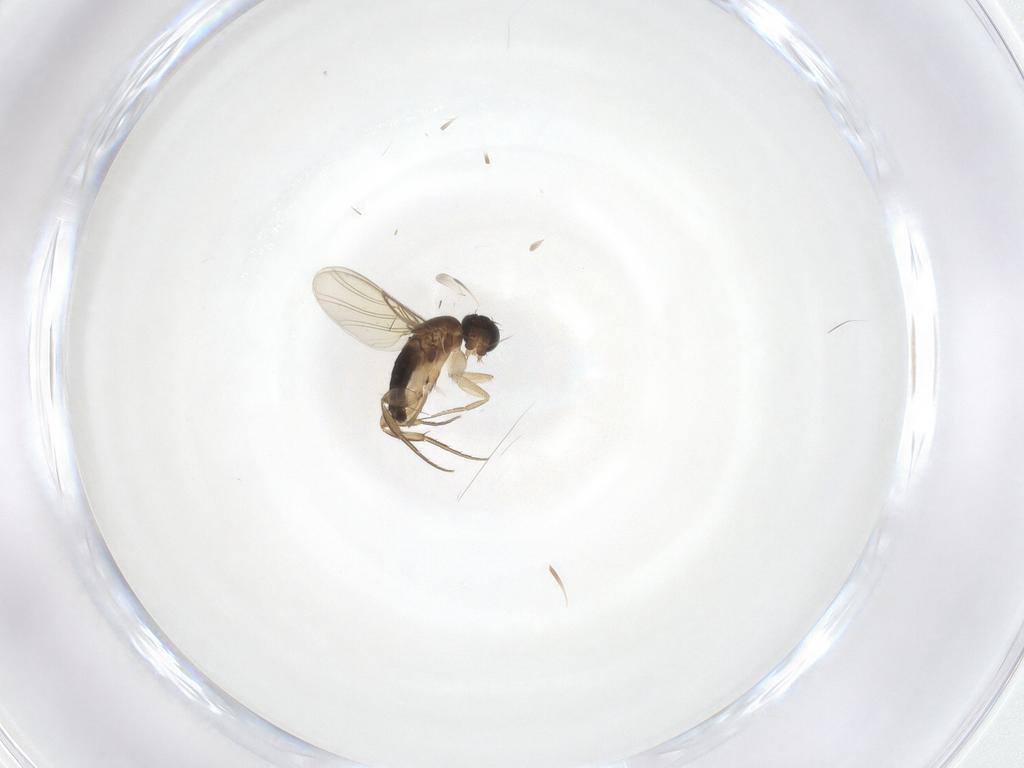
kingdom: Animalia
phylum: Arthropoda
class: Insecta
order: Diptera
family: Phoridae
